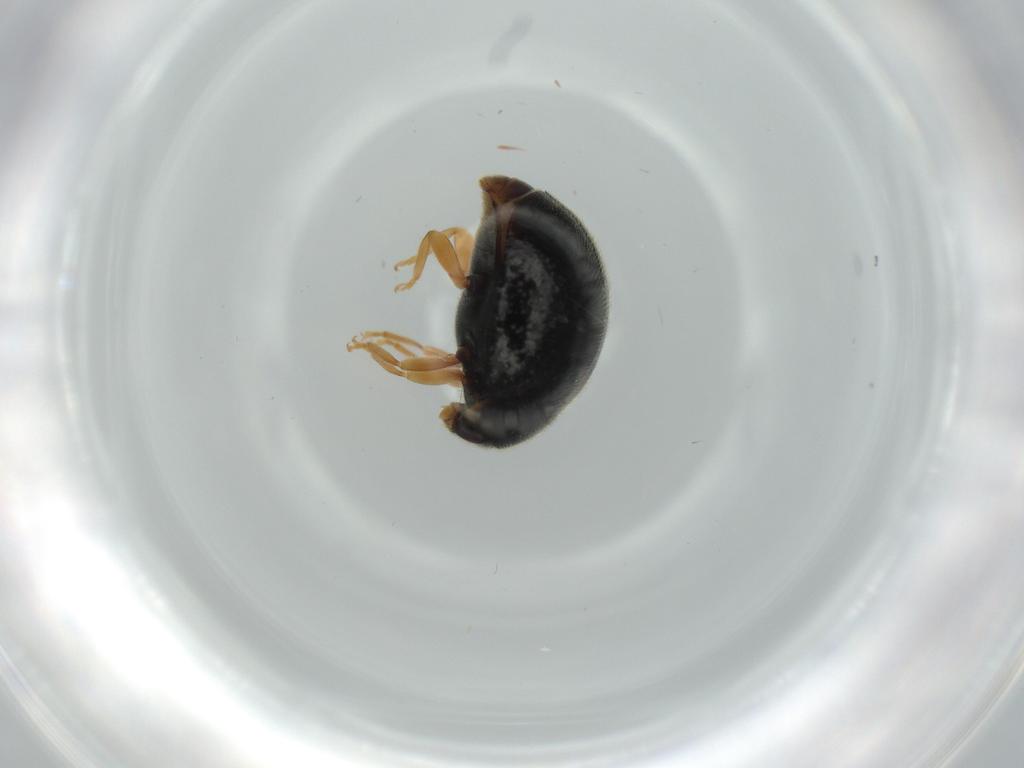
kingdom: Animalia
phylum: Arthropoda
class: Insecta
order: Coleoptera
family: Coccinellidae
